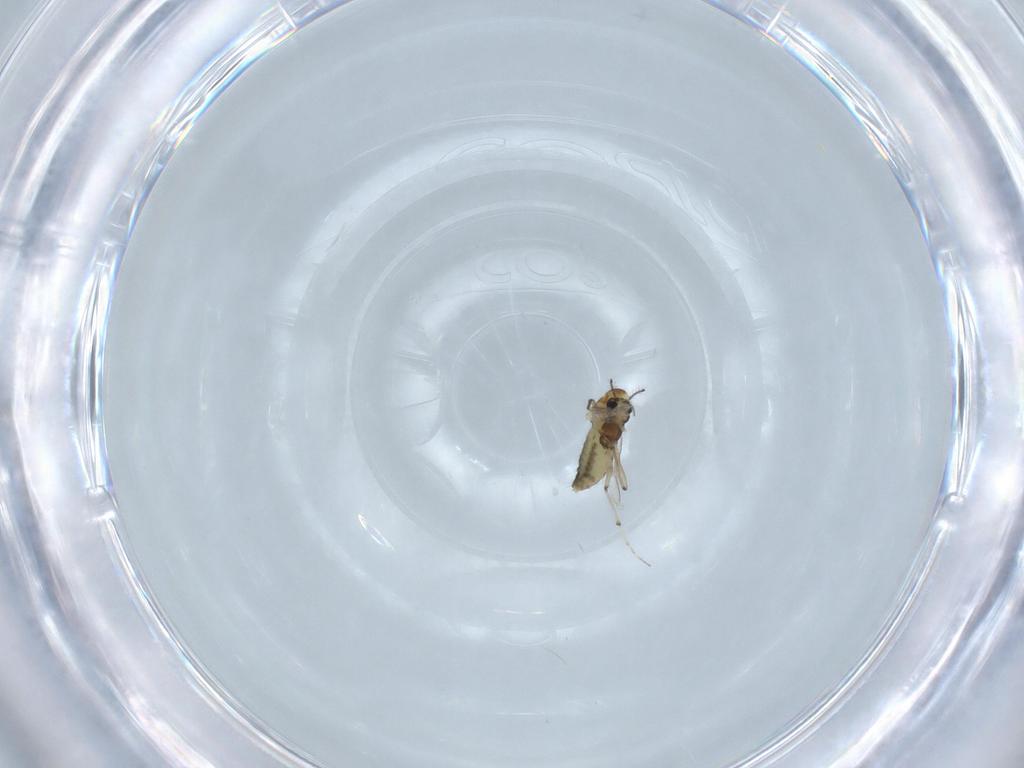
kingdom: Animalia
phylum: Arthropoda
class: Insecta
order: Diptera
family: Chironomidae
